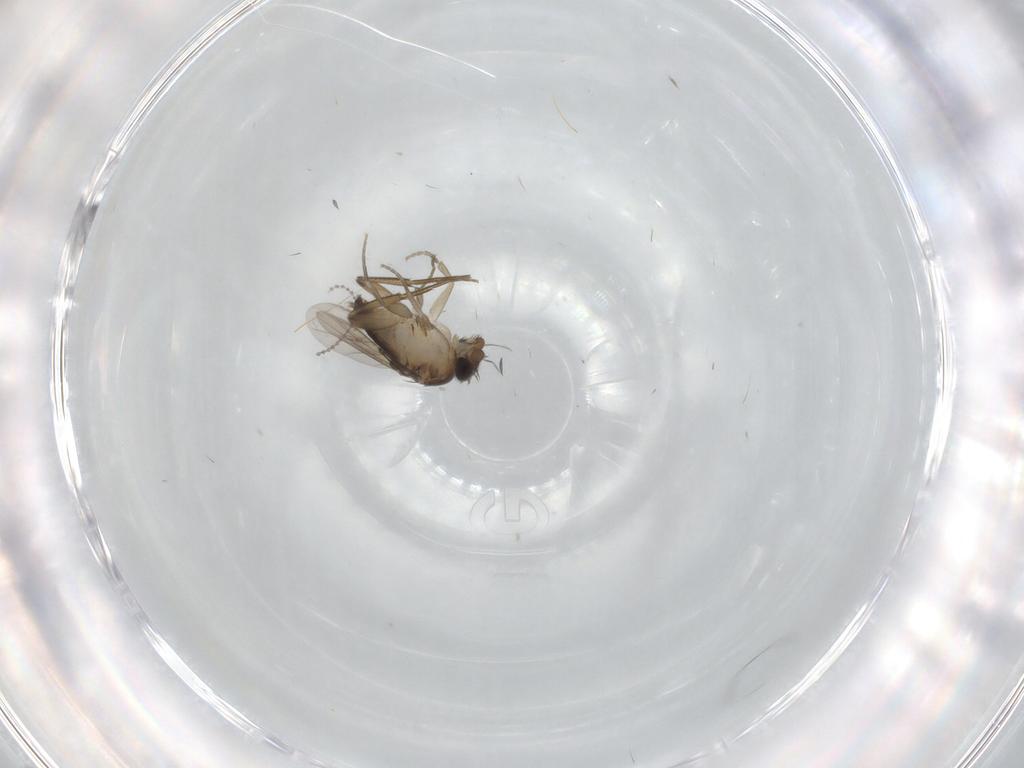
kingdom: Animalia
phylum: Arthropoda
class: Insecta
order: Diptera
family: Phoridae
